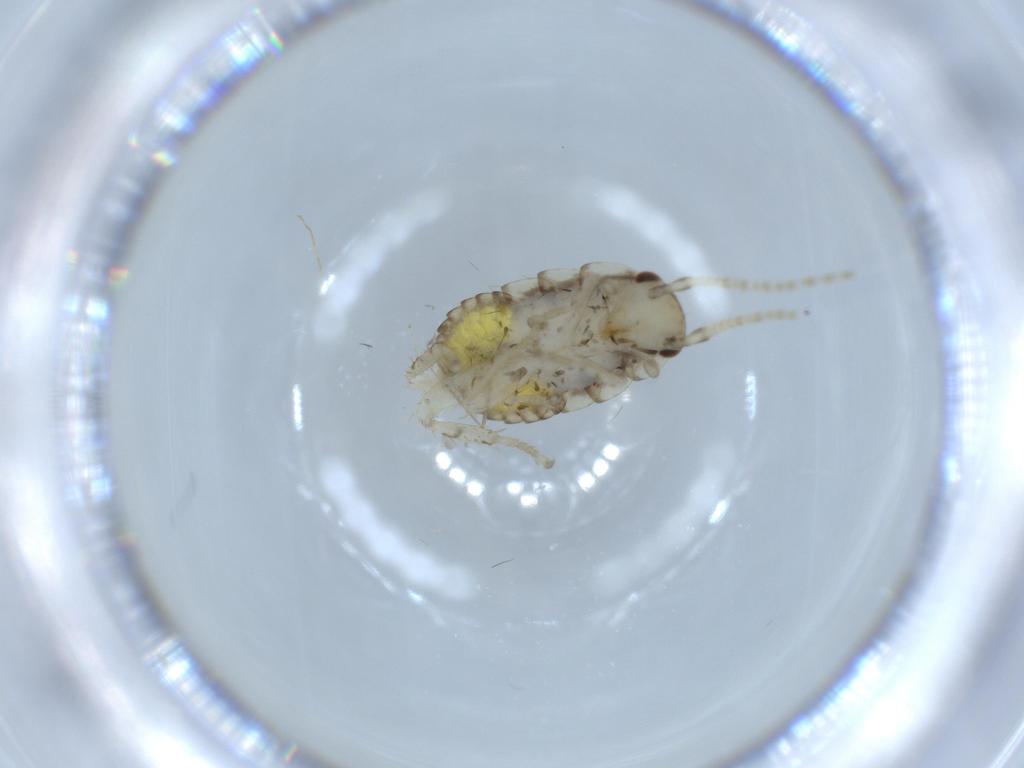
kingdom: Animalia
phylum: Arthropoda
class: Insecta
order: Blattodea
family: Ectobiidae
